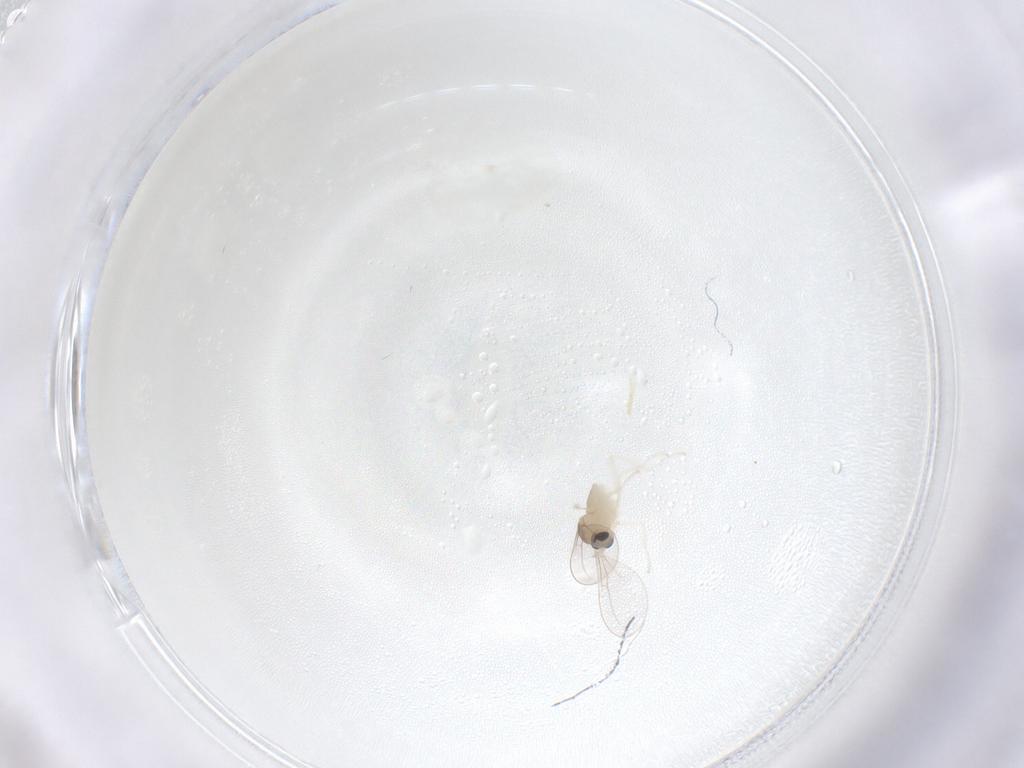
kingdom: Animalia
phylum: Arthropoda
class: Insecta
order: Diptera
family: Cecidomyiidae
